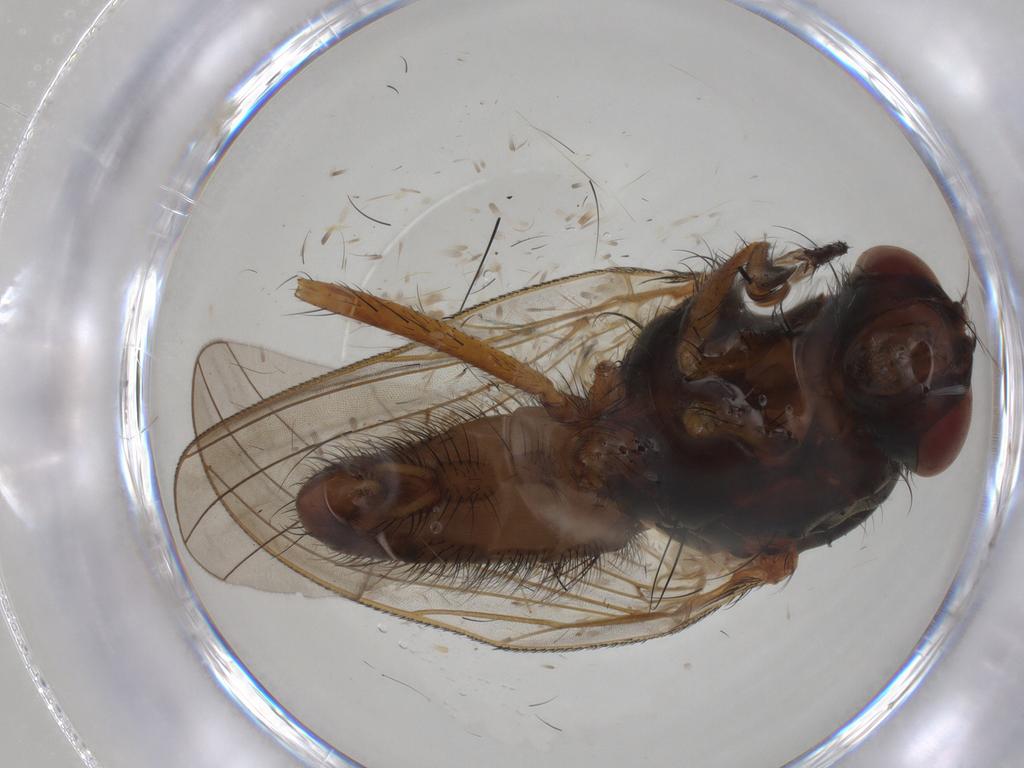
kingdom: Animalia
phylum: Arthropoda
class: Insecta
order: Diptera
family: Anthomyiidae
